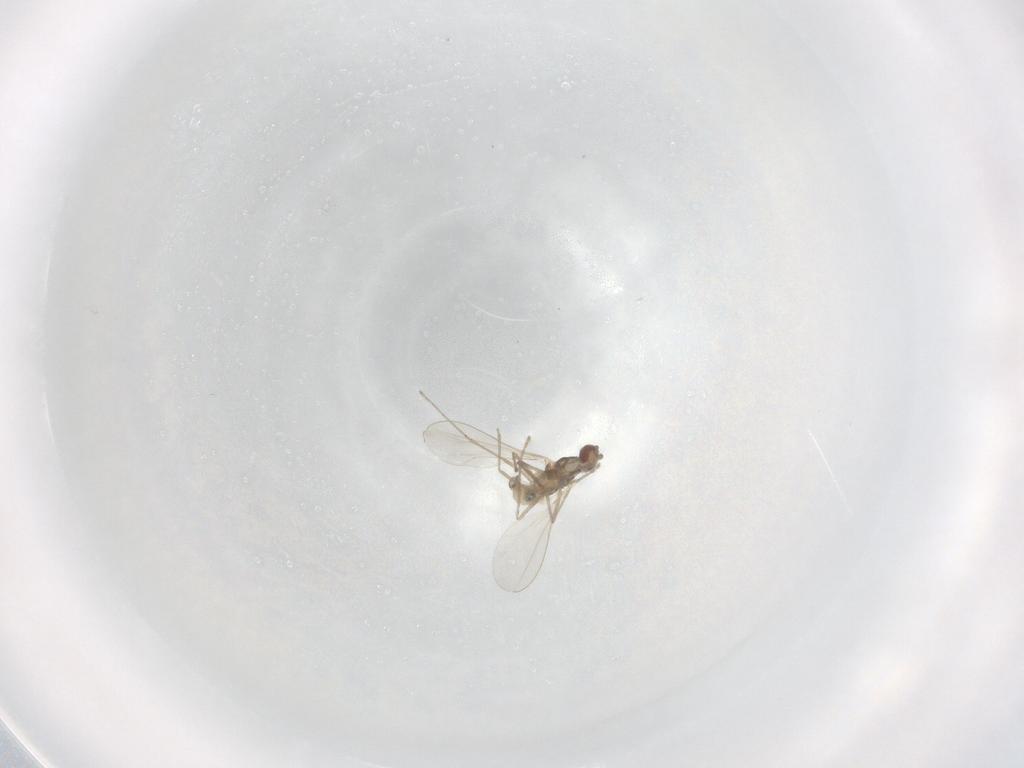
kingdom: Animalia
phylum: Arthropoda
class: Insecta
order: Diptera
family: Cecidomyiidae
